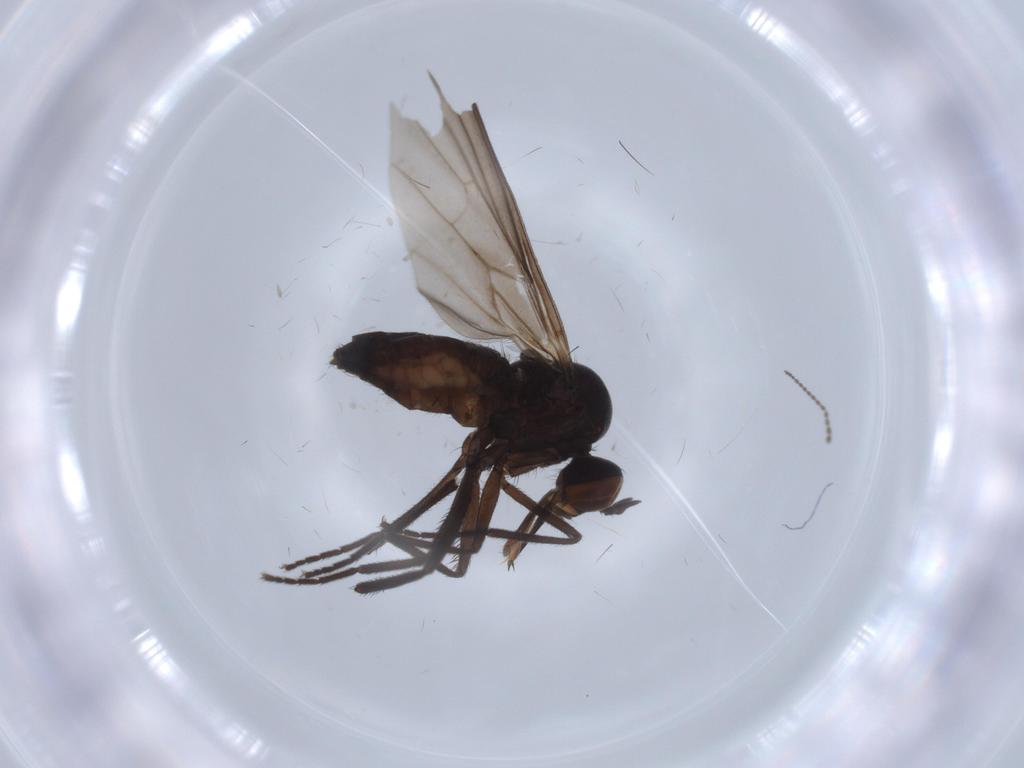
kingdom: Animalia
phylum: Arthropoda
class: Insecta
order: Diptera
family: Empididae
